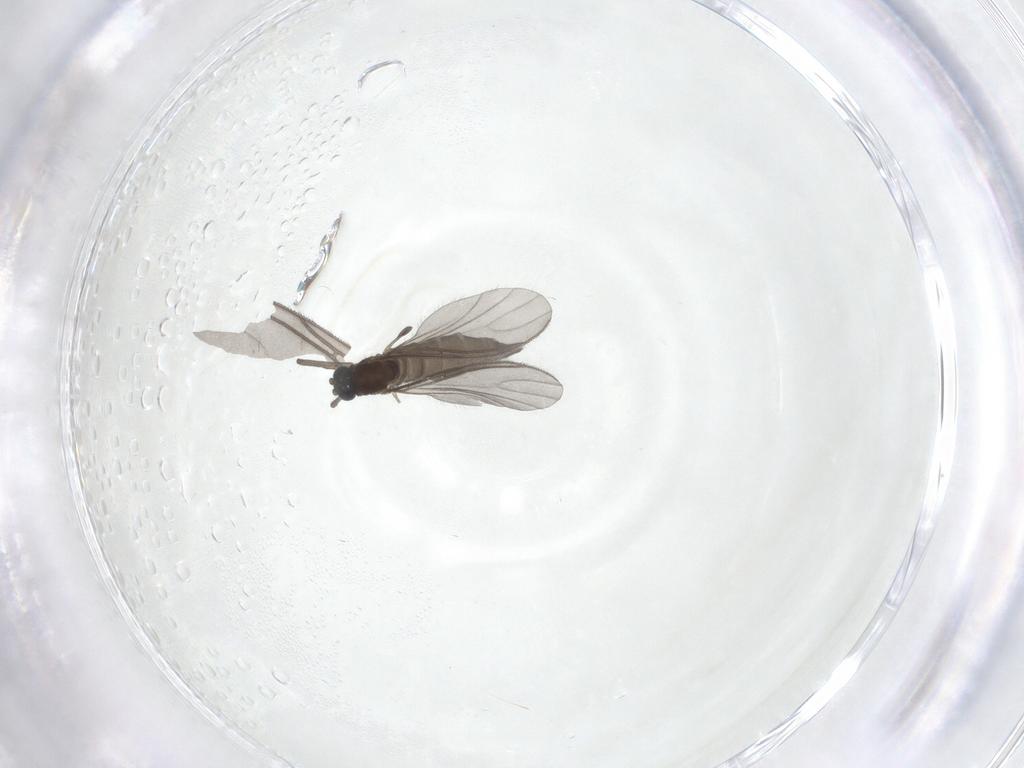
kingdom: Animalia
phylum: Arthropoda
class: Insecta
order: Diptera
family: Sciaridae
